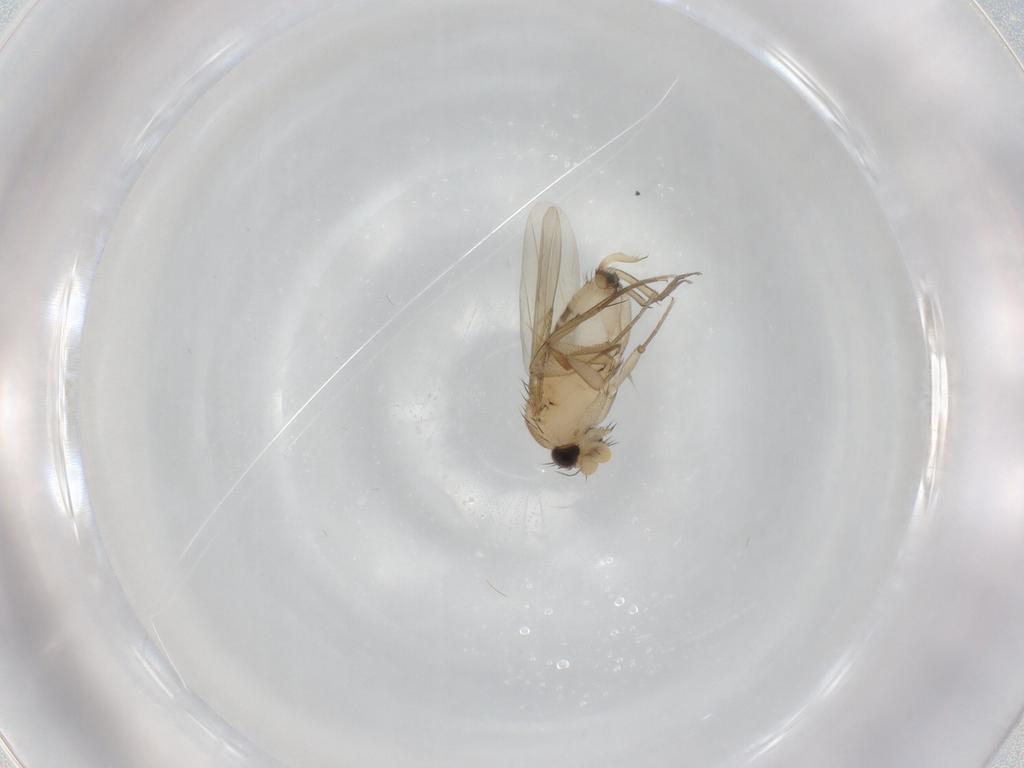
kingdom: Animalia
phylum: Arthropoda
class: Insecta
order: Diptera
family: Phoridae
